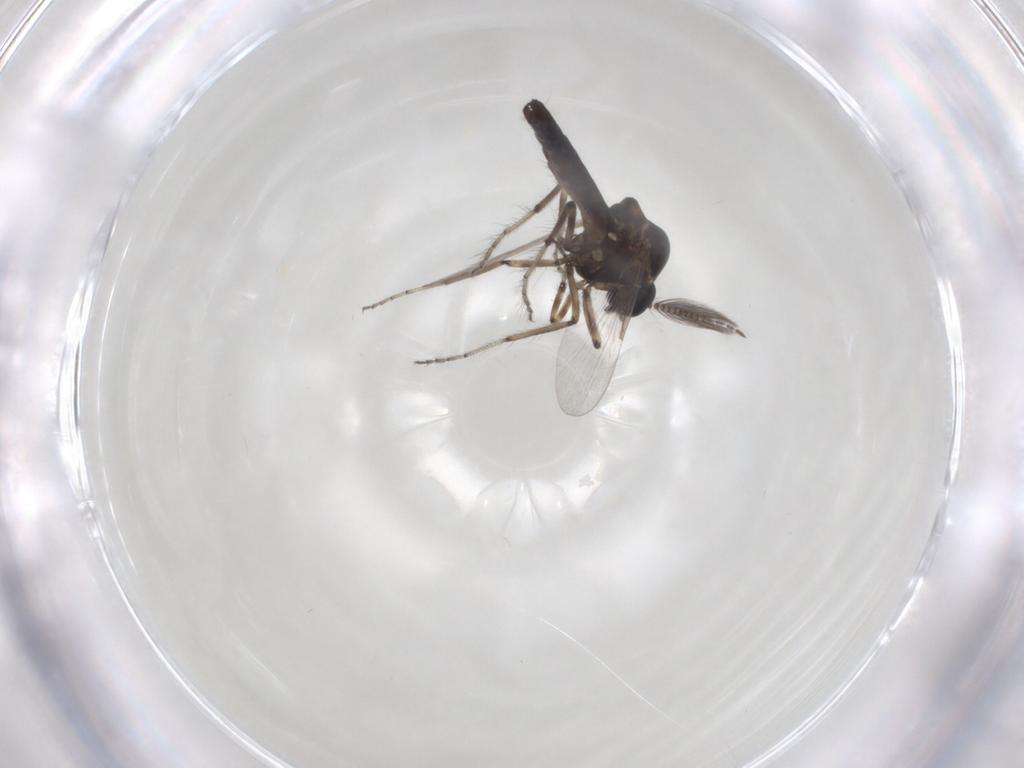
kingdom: Animalia
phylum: Arthropoda
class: Insecta
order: Diptera
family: Ceratopogonidae
